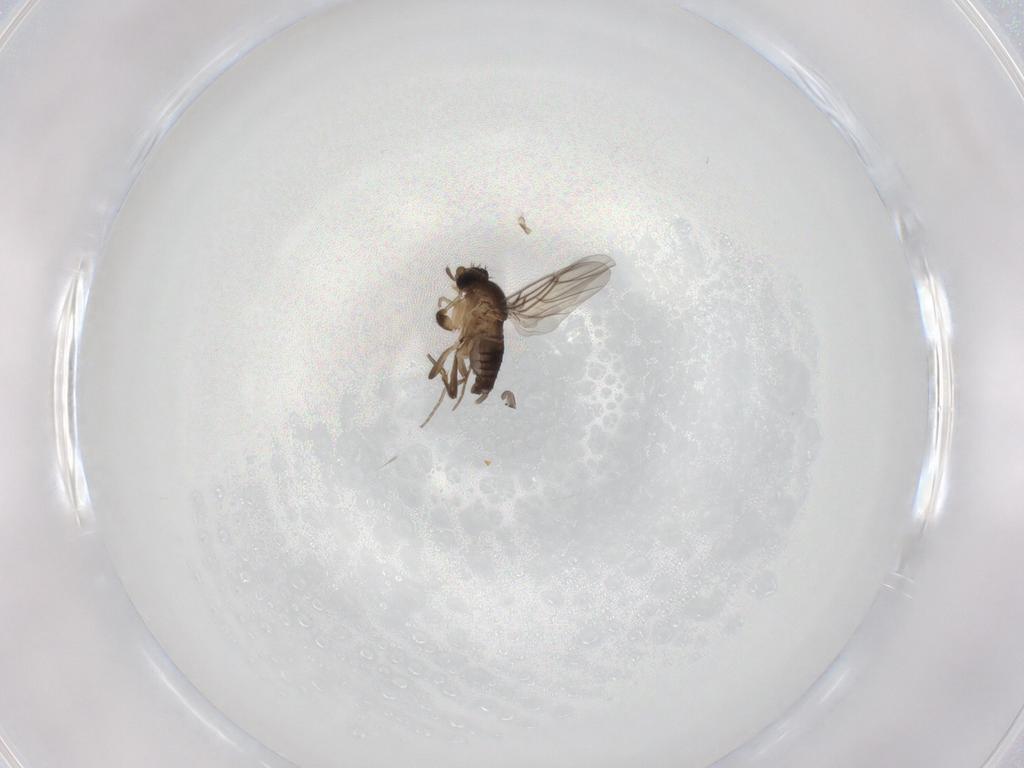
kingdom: Animalia
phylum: Arthropoda
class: Insecta
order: Diptera
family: Phoridae
